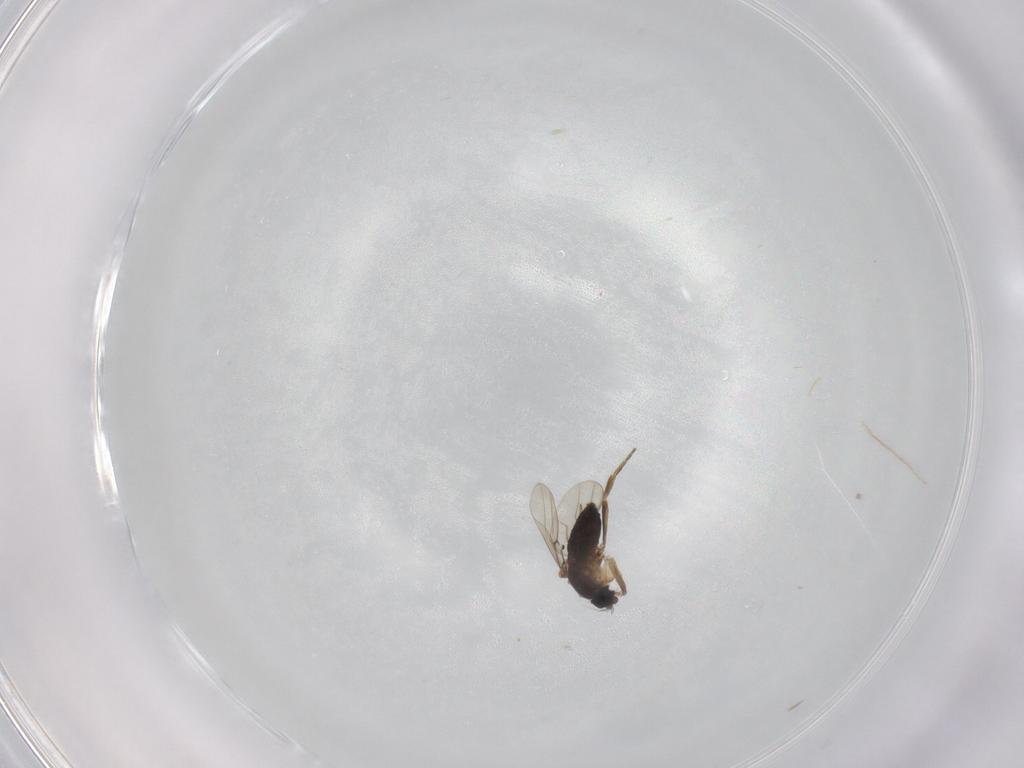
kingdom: Animalia
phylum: Arthropoda
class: Insecta
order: Diptera
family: Phoridae
